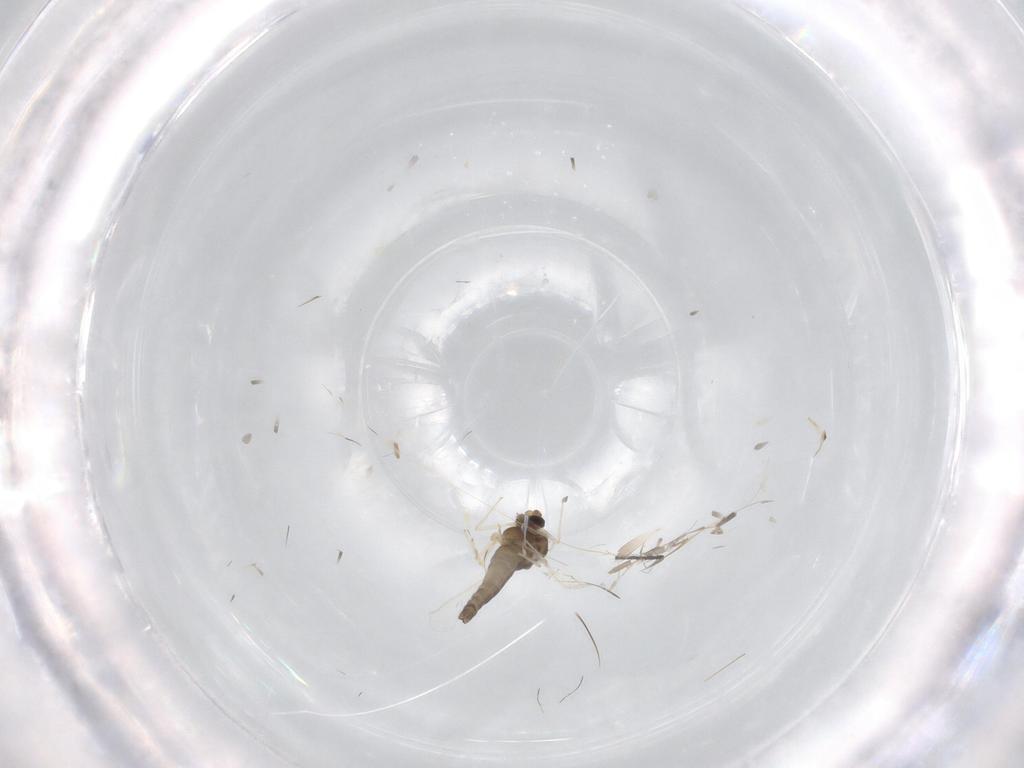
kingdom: Animalia
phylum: Arthropoda
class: Insecta
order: Diptera
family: Chironomidae
